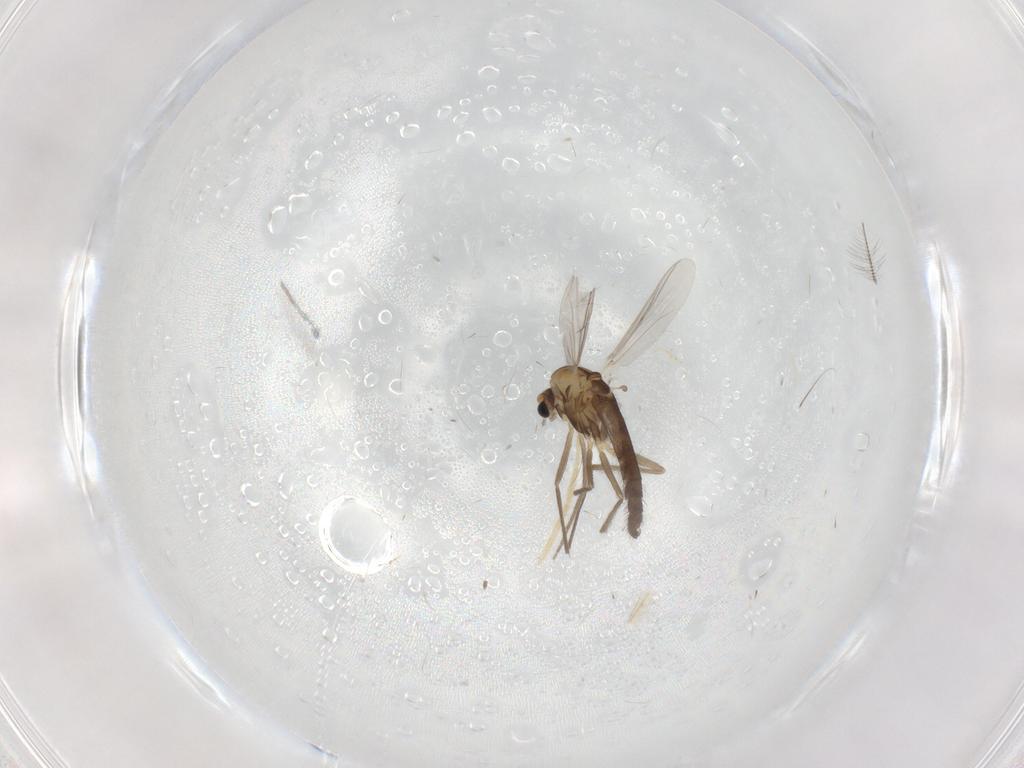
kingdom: Animalia
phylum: Arthropoda
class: Insecta
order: Diptera
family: Chironomidae
